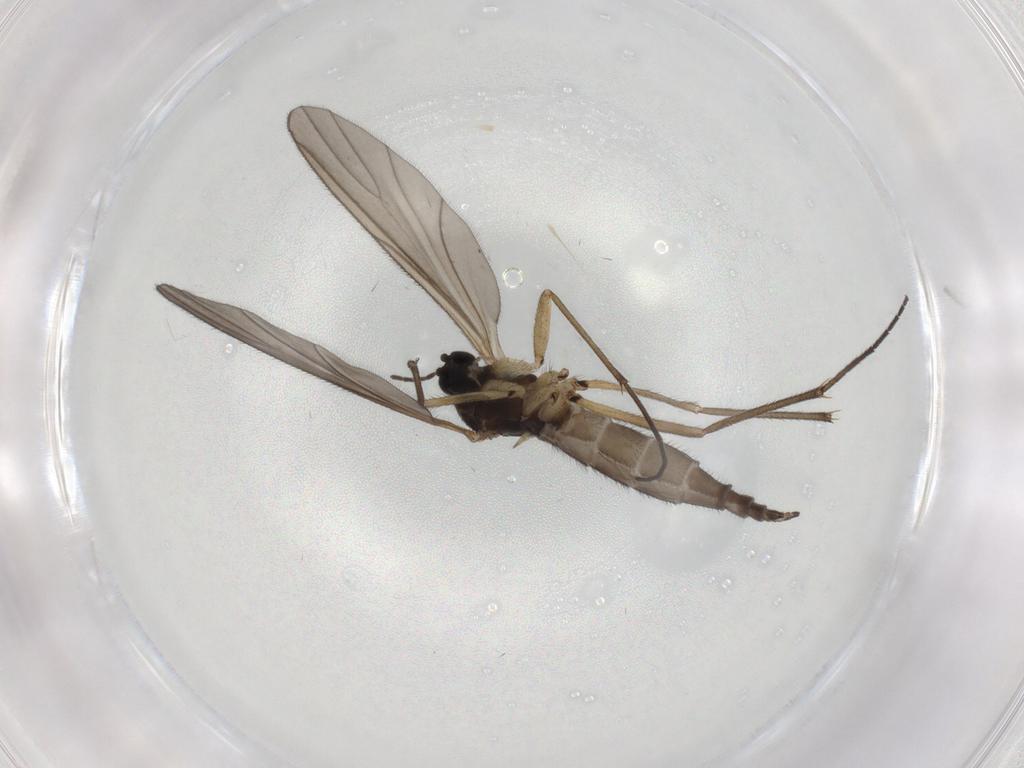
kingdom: Animalia
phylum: Arthropoda
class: Insecta
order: Diptera
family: Sciaridae
